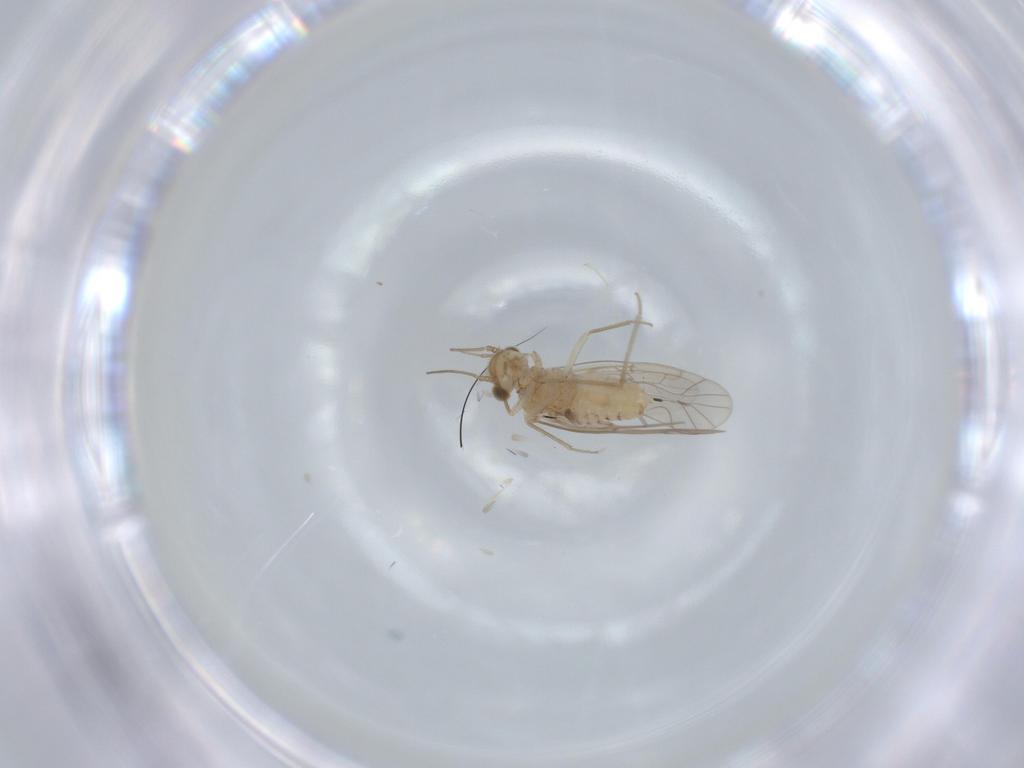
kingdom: Animalia
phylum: Arthropoda
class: Insecta
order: Psocodea
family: Lachesillidae
